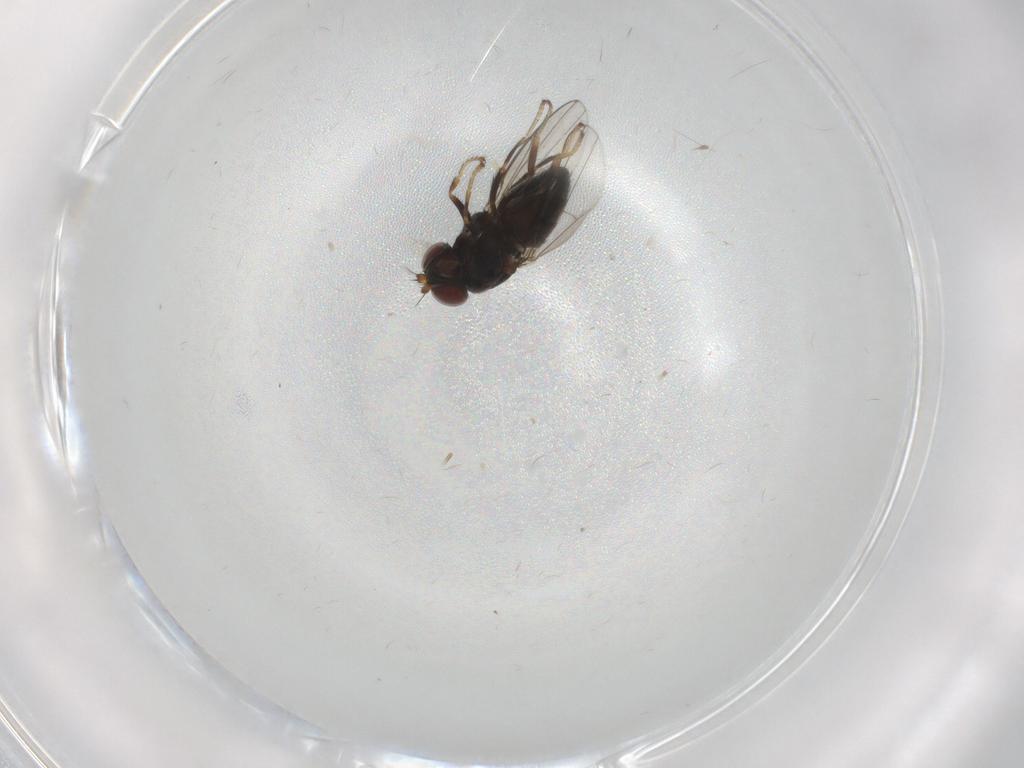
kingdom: Animalia
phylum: Arthropoda
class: Insecta
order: Diptera
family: Ephydridae
